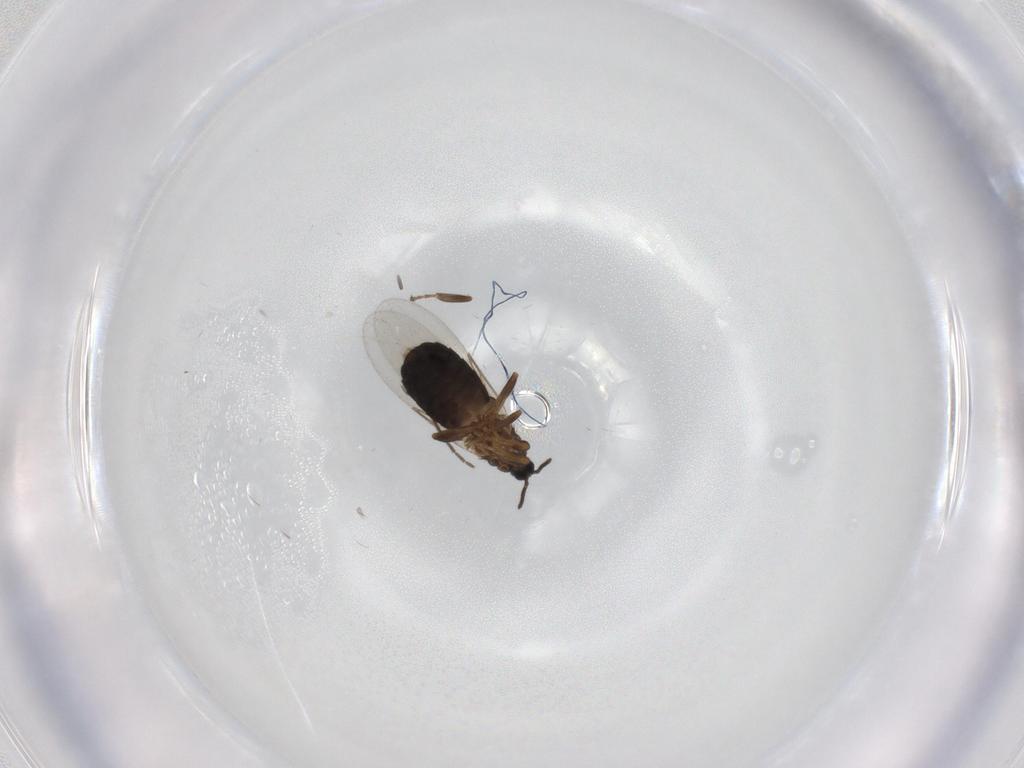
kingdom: Animalia
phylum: Arthropoda
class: Insecta
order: Diptera
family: Scatopsidae
